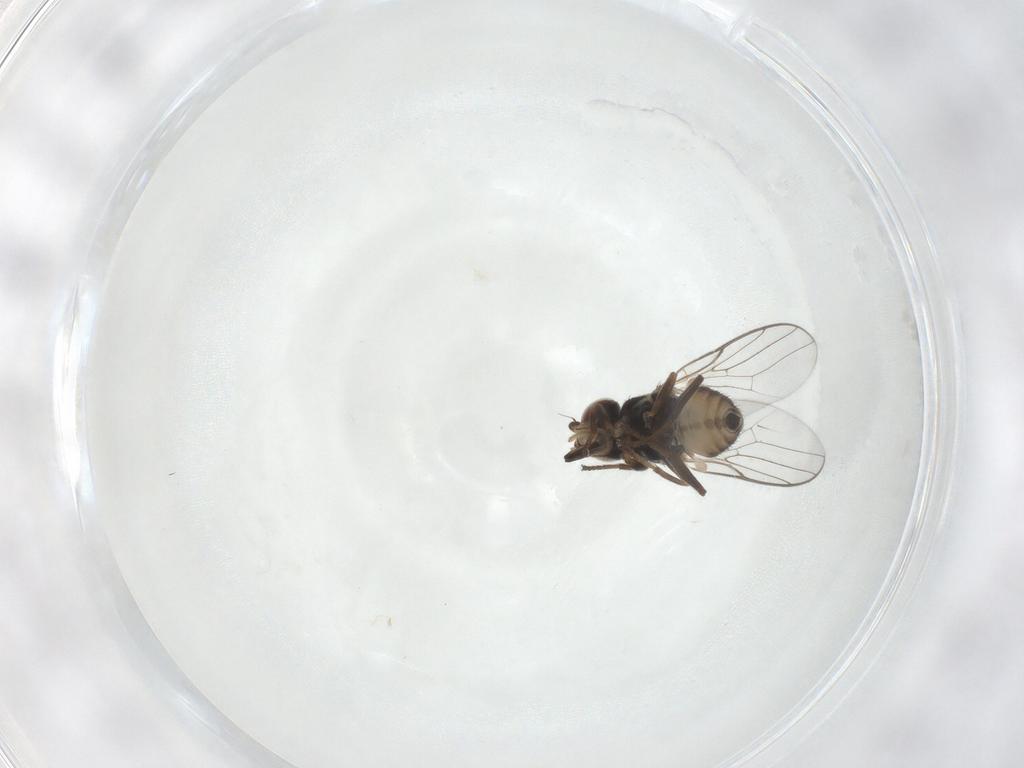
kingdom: Animalia
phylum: Arthropoda
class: Insecta
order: Diptera
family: Chloropidae
